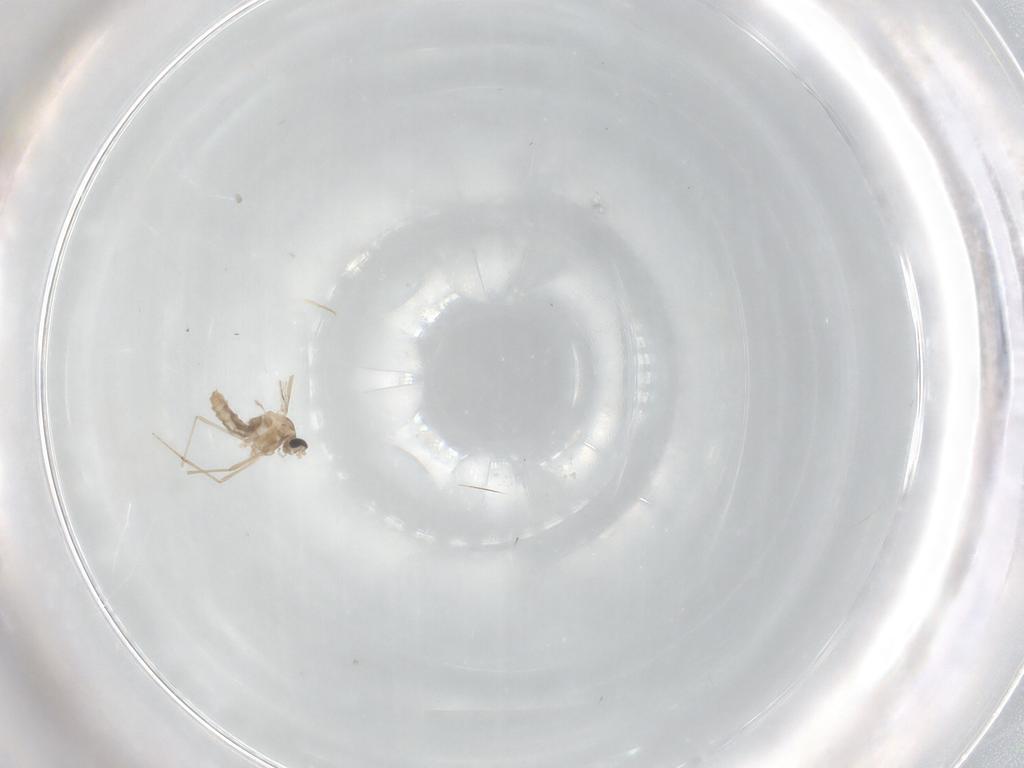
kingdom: Animalia
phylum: Arthropoda
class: Insecta
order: Diptera
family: Cecidomyiidae
